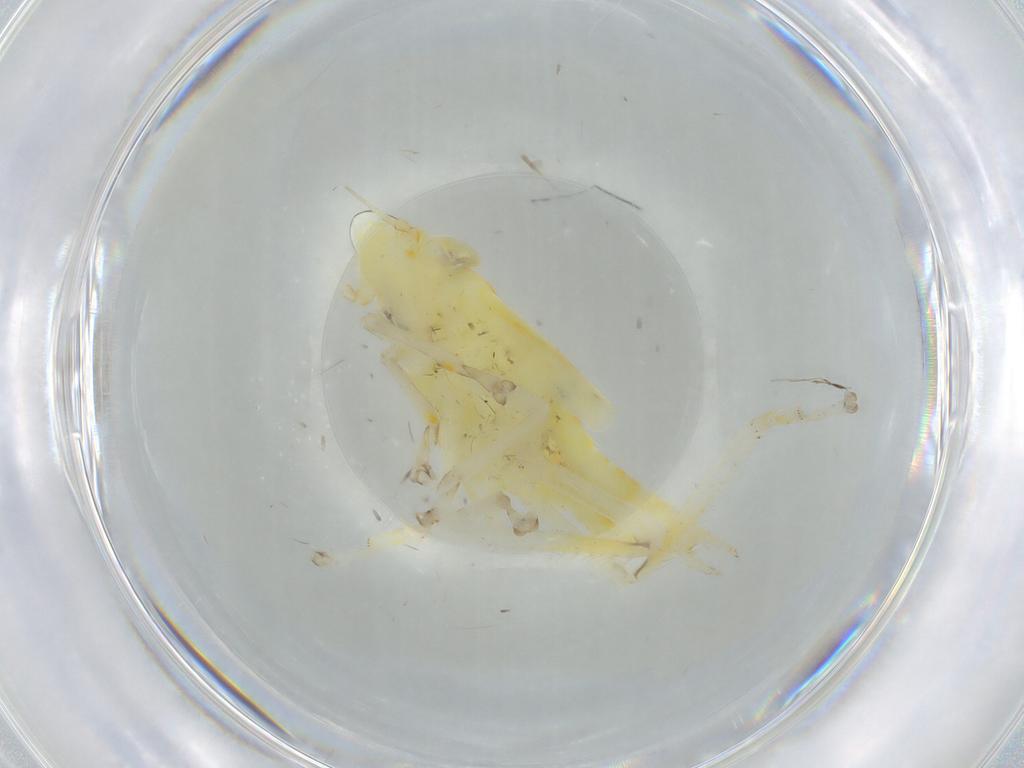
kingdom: Animalia
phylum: Arthropoda
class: Insecta
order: Hemiptera
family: Cicadellidae
